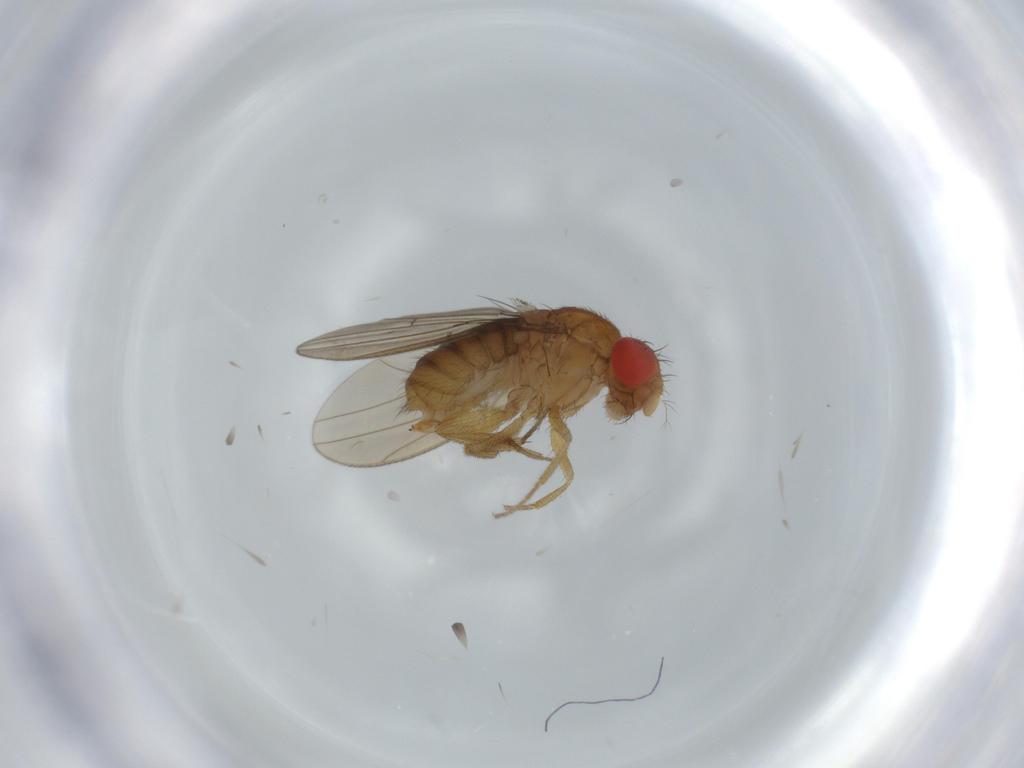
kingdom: Animalia
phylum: Arthropoda
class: Insecta
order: Diptera
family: Drosophilidae
